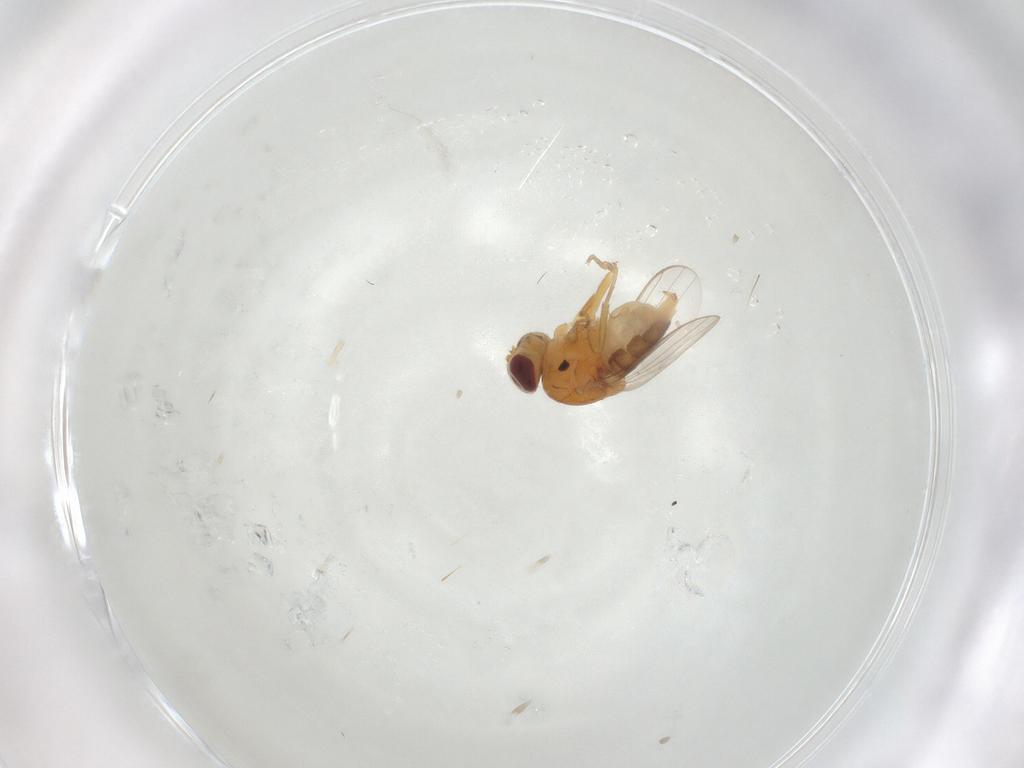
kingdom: Animalia
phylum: Arthropoda
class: Insecta
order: Diptera
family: Chloropidae
